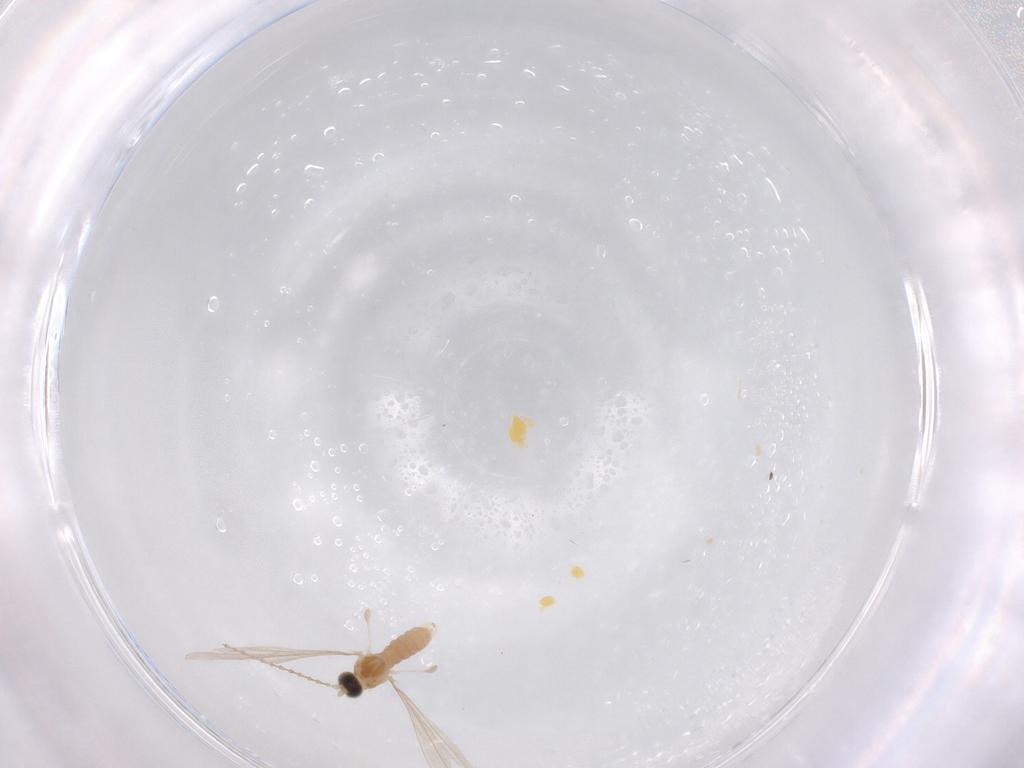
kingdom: Animalia
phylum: Arthropoda
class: Insecta
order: Diptera
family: Cecidomyiidae
